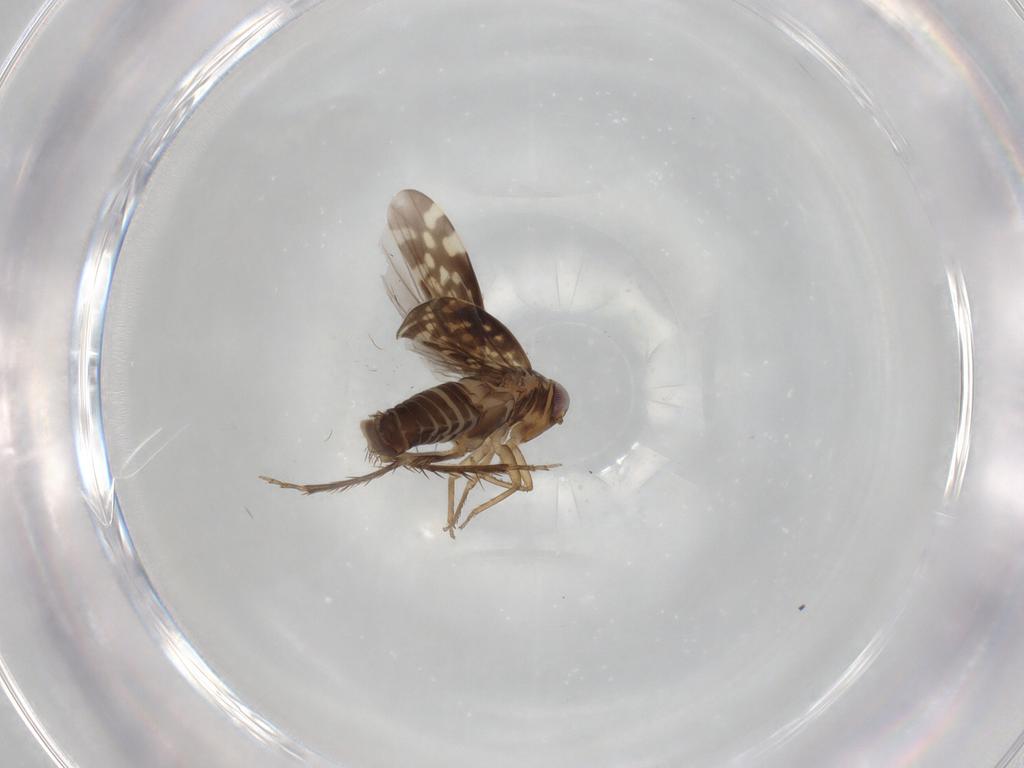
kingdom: Animalia
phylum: Arthropoda
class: Insecta
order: Hemiptera
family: Cicadellidae
